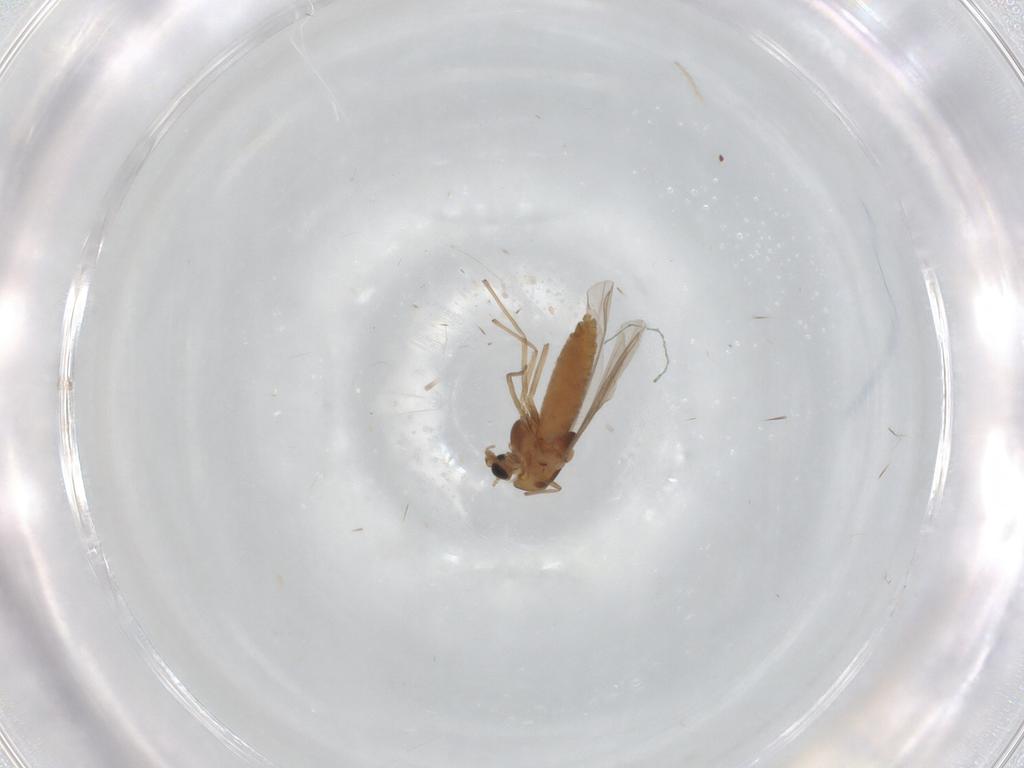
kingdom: Animalia
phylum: Arthropoda
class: Insecta
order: Diptera
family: Chironomidae
